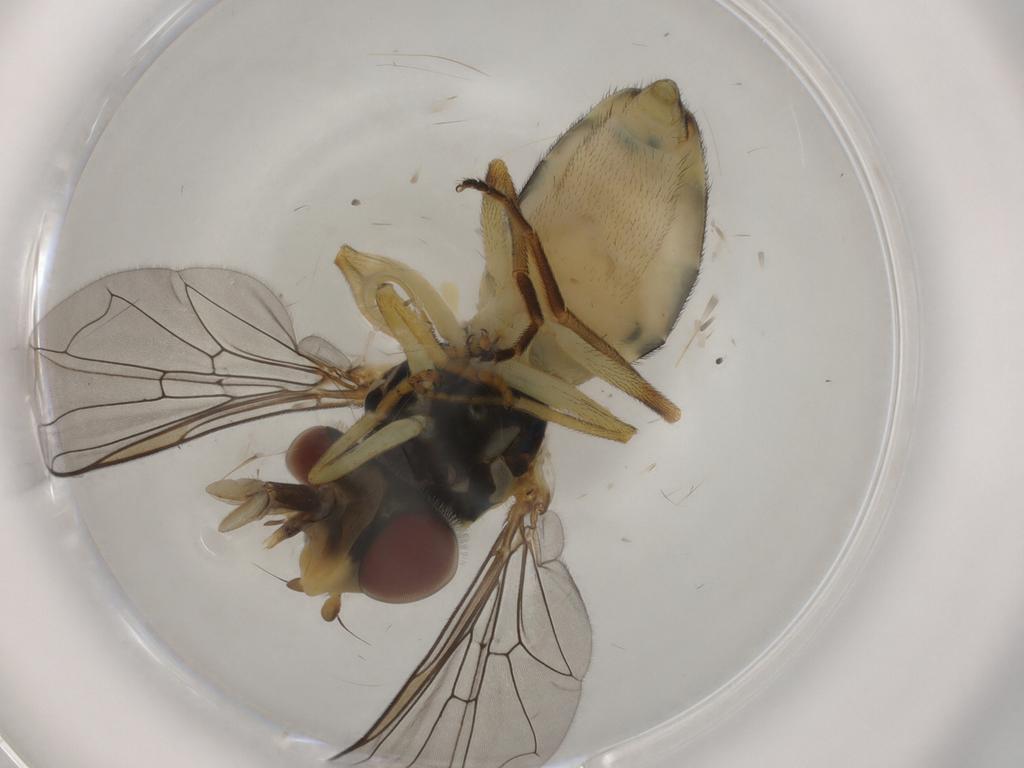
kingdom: Animalia
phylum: Arthropoda
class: Insecta
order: Diptera
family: Syrphidae
